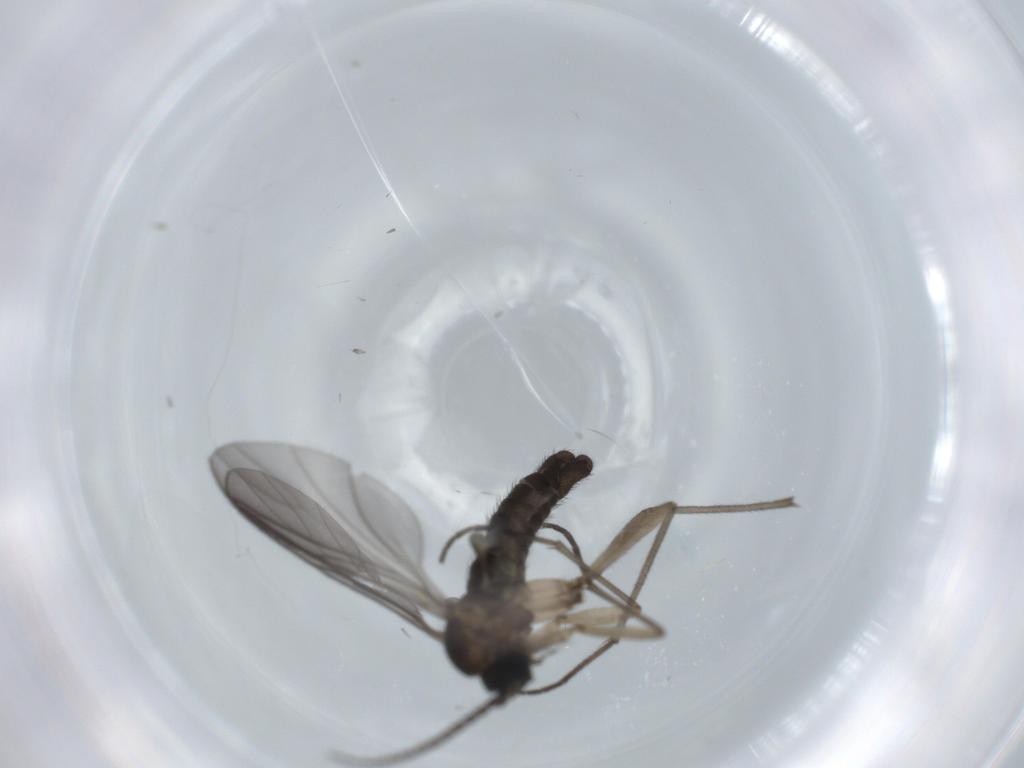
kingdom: Animalia
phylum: Arthropoda
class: Insecta
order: Diptera
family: Sciaridae
